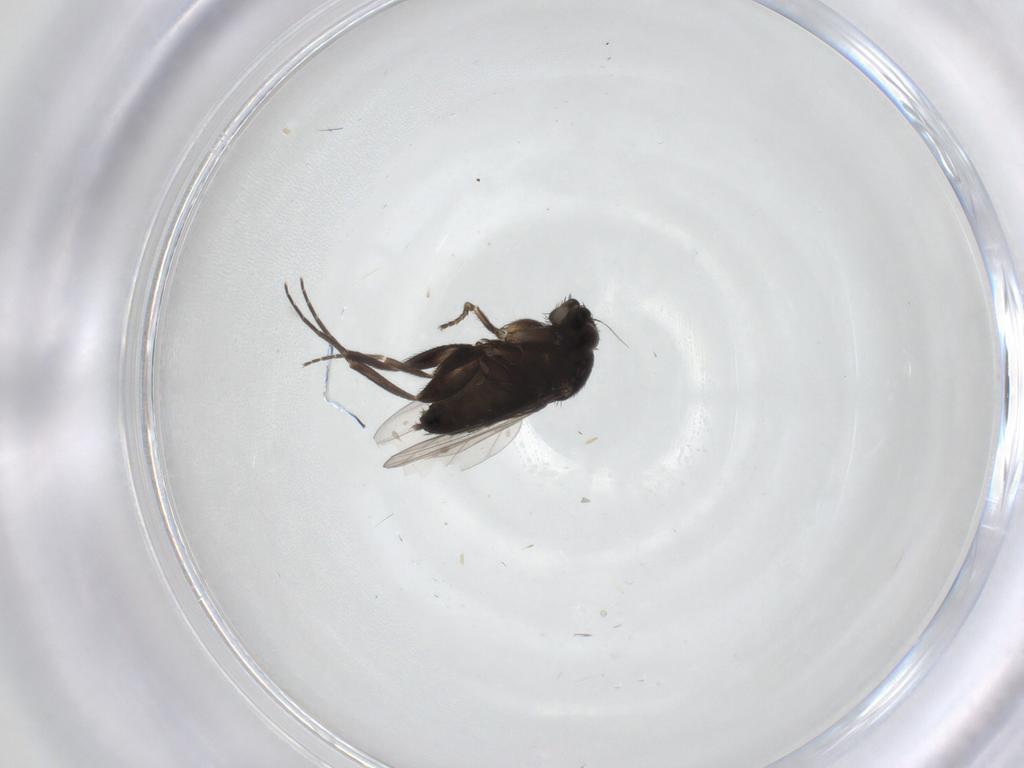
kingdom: Animalia
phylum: Arthropoda
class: Insecta
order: Diptera
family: Phoridae
